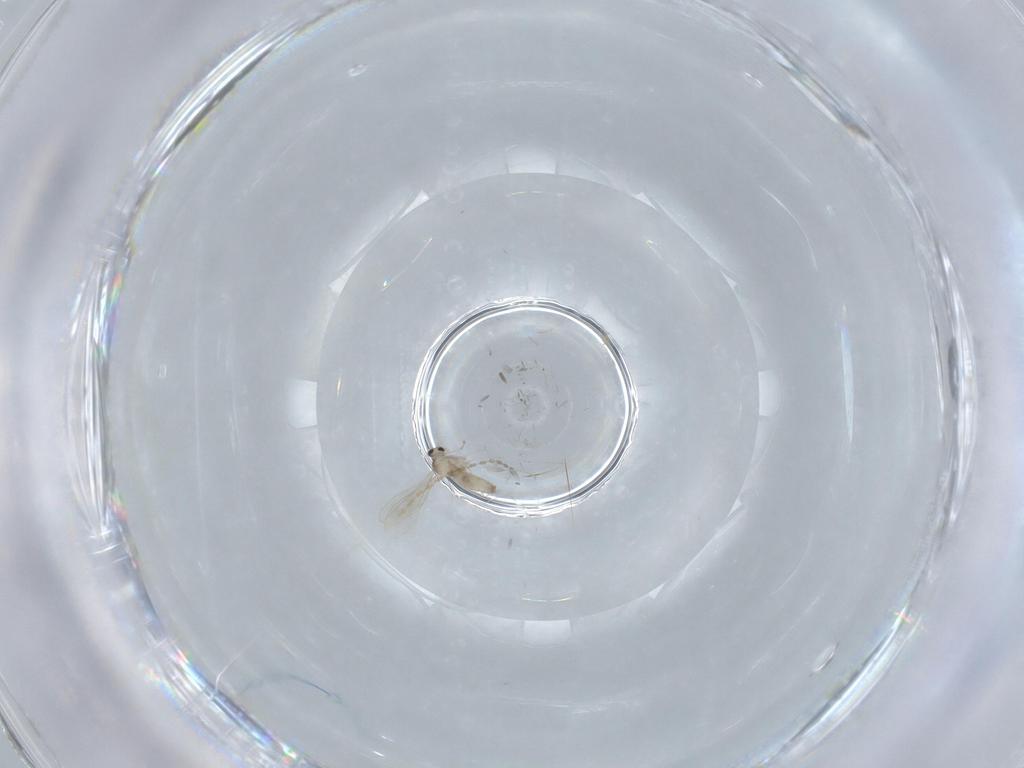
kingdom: Animalia
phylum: Arthropoda
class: Insecta
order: Diptera
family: Cecidomyiidae
